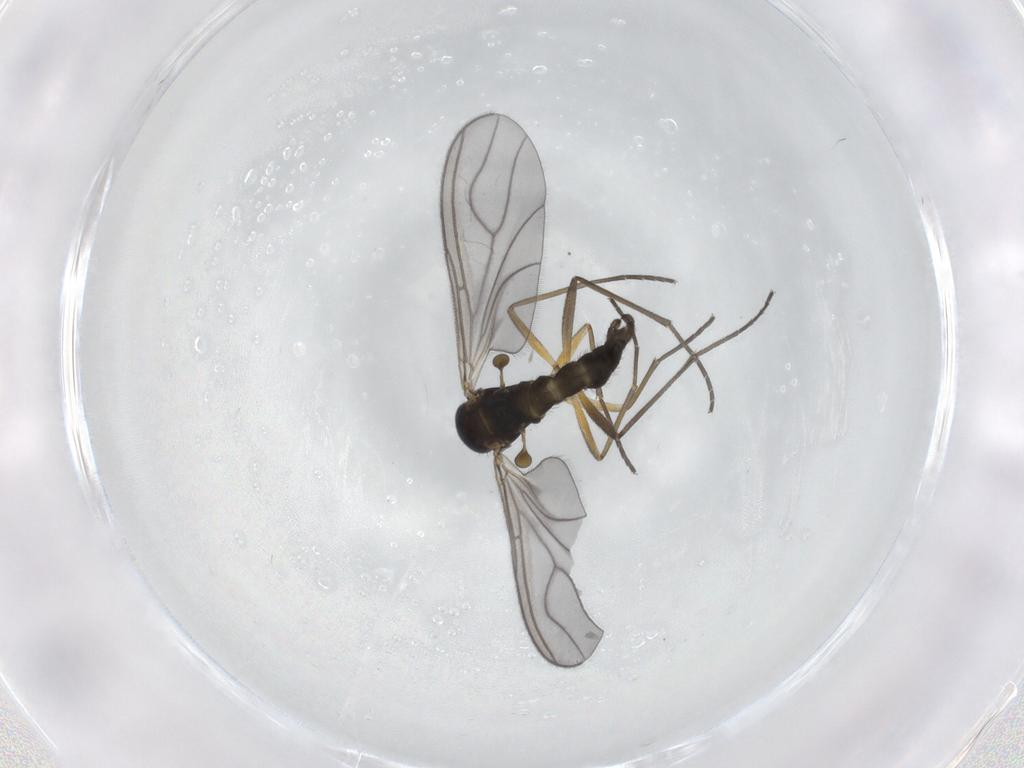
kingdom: Animalia
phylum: Arthropoda
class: Insecta
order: Diptera
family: Sciaridae
